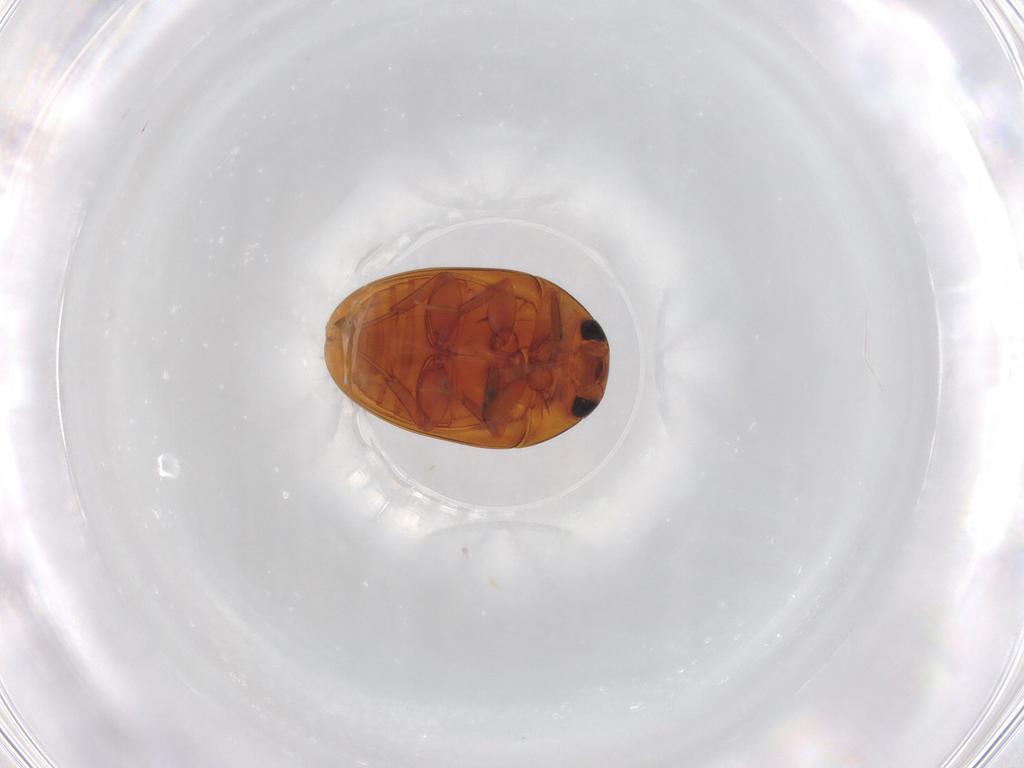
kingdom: Animalia
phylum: Arthropoda
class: Insecta
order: Coleoptera
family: Phalacridae
